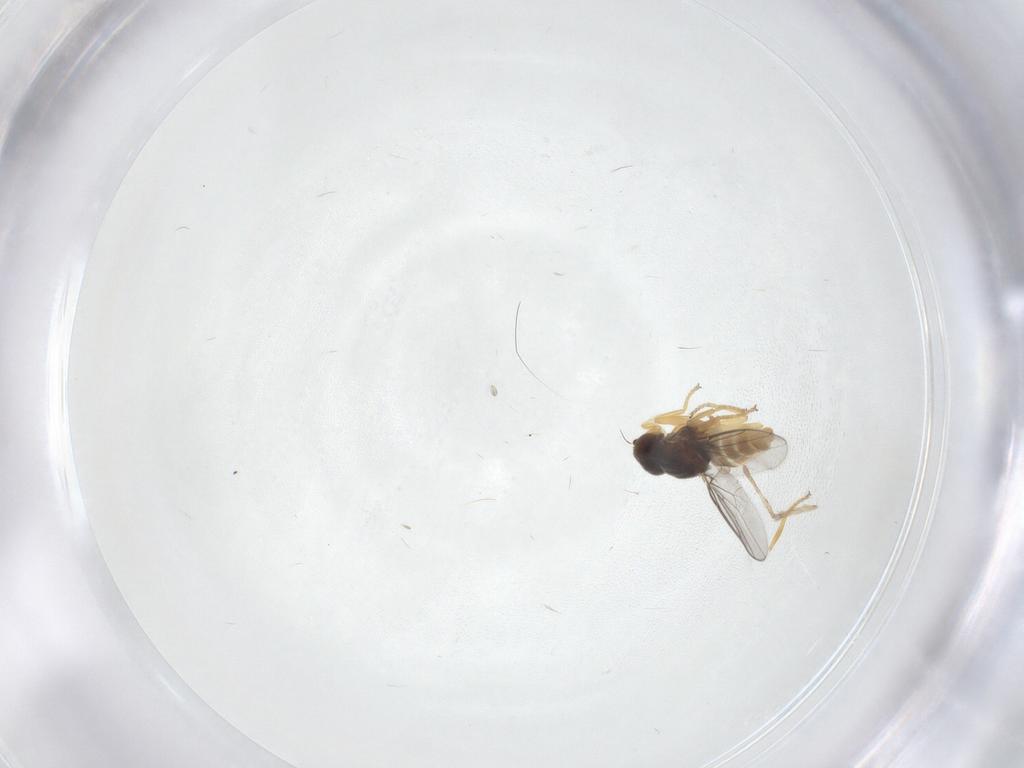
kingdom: Animalia
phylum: Arthropoda
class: Insecta
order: Diptera
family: Chloropidae
